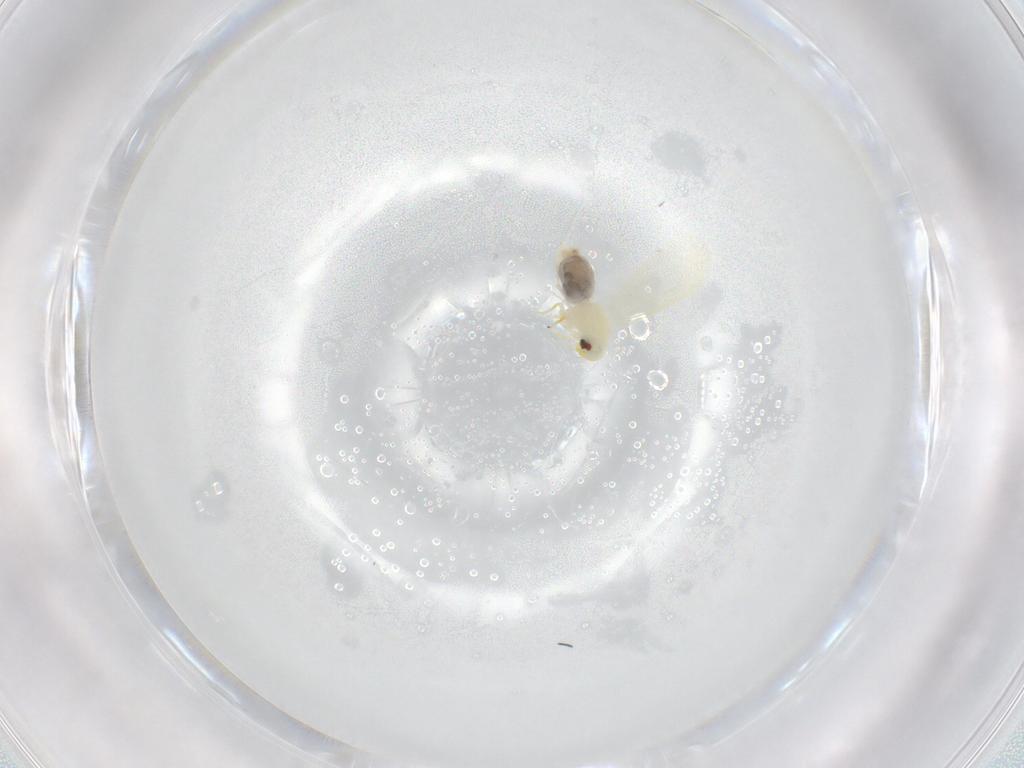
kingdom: Animalia
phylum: Arthropoda
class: Insecta
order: Hemiptera
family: Aleyrodidae
